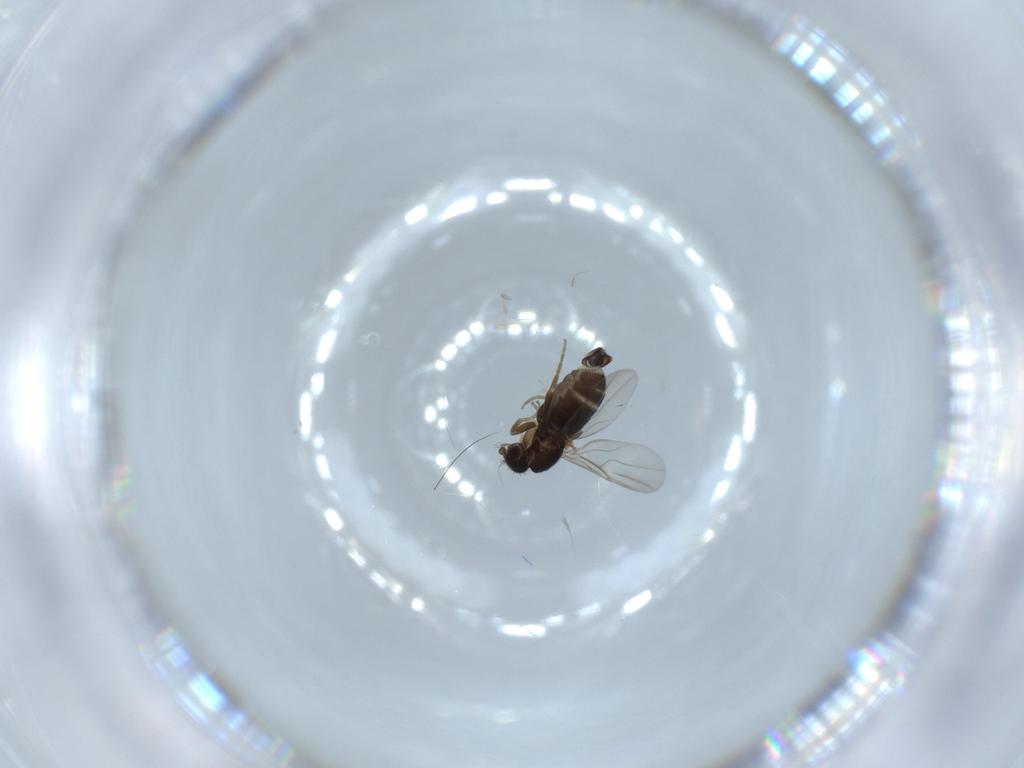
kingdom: Animalia
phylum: Arthropoda
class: Insecta
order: Diptera
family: Phoridae
